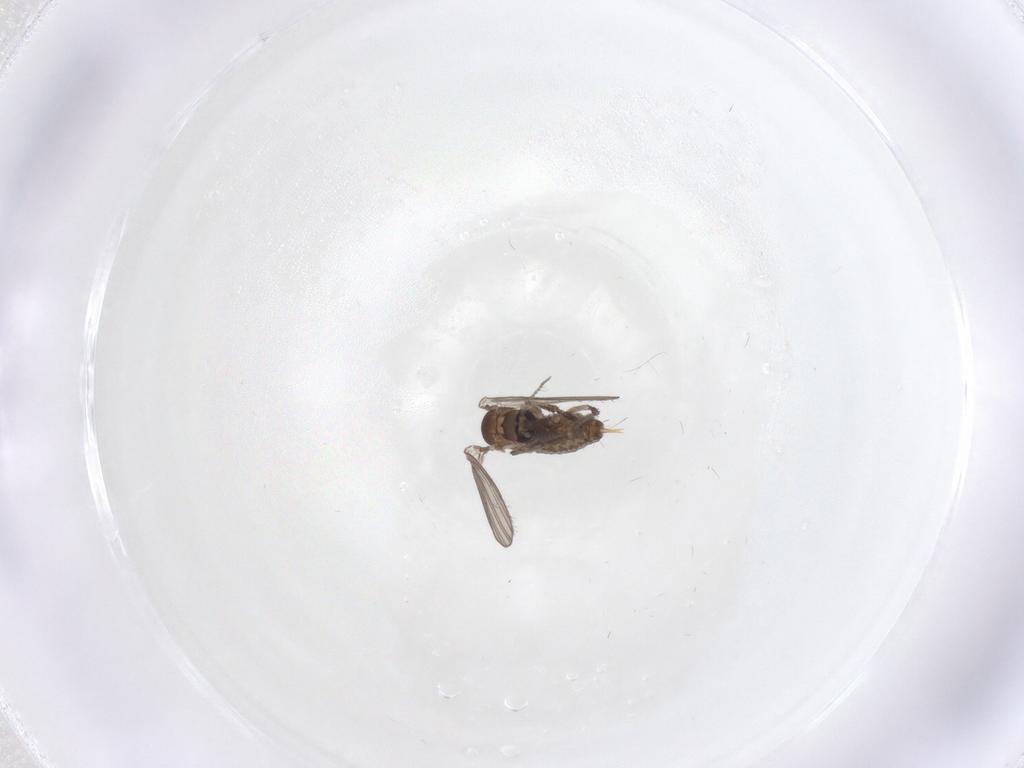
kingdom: Animalia
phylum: Arthropoda
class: Insecta
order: Diptera
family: Psychodidae
